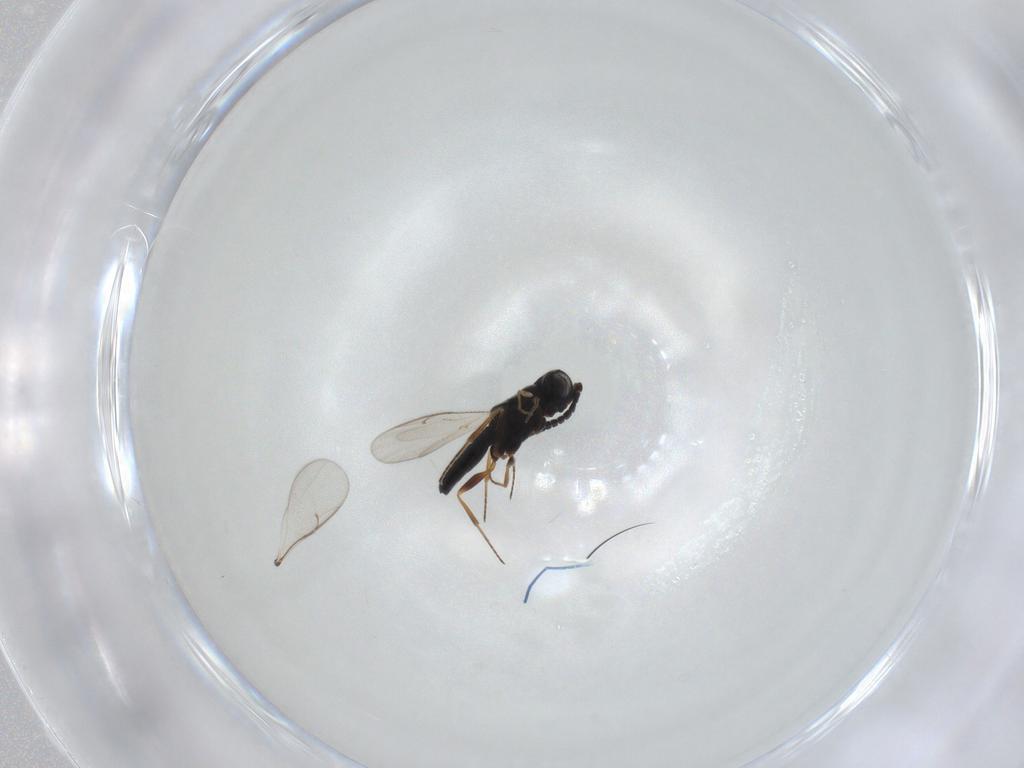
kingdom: Animalia
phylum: Arthropoda
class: Insecta
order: Hymenoptera
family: Scelionidae
